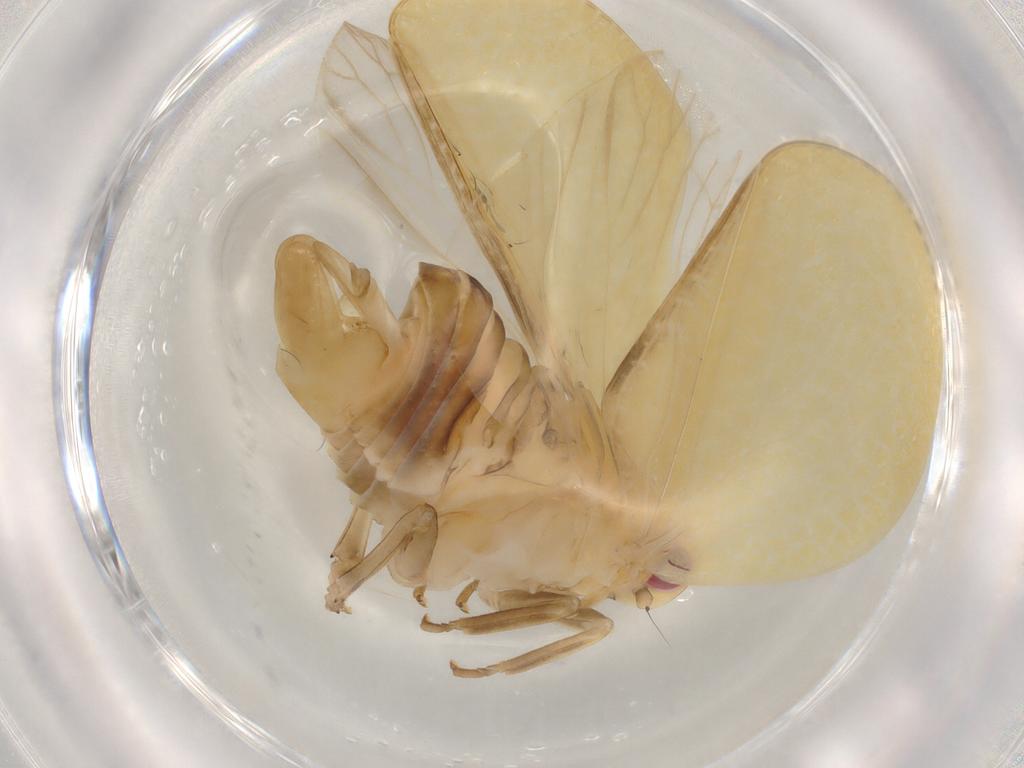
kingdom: Animalia
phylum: Arthropoda
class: Insecta
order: Hemiptera
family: Acanaloniidae
